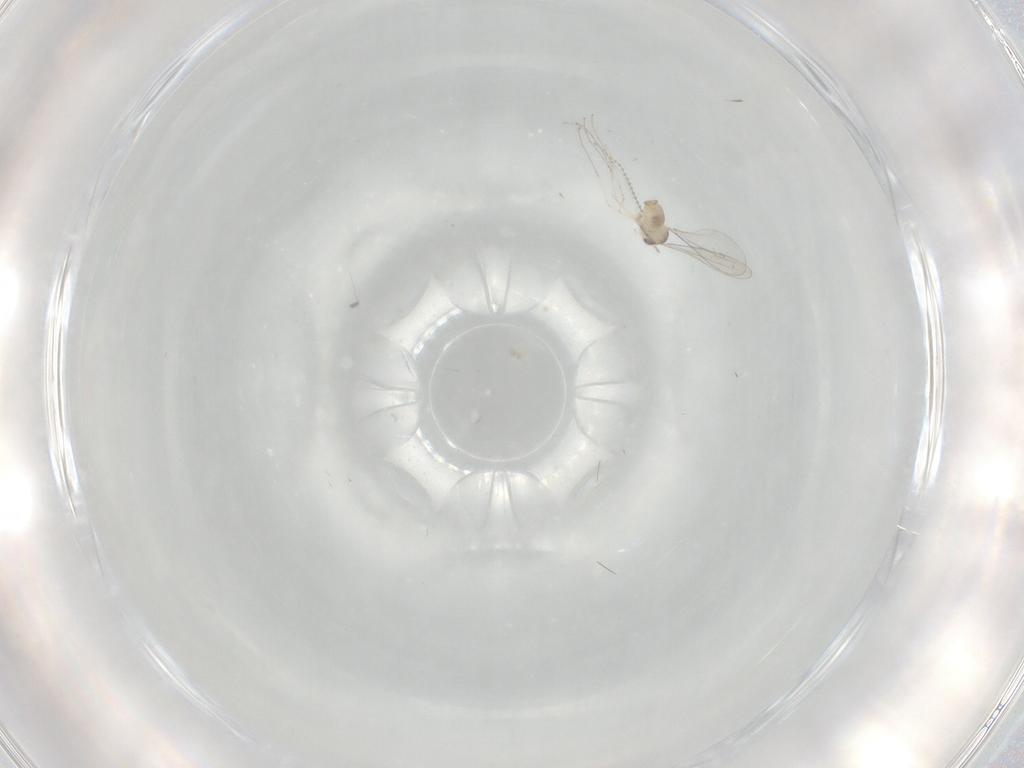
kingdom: Animalia
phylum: Arthropoda
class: Insecta
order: Diptera
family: Cecidomyiidae
